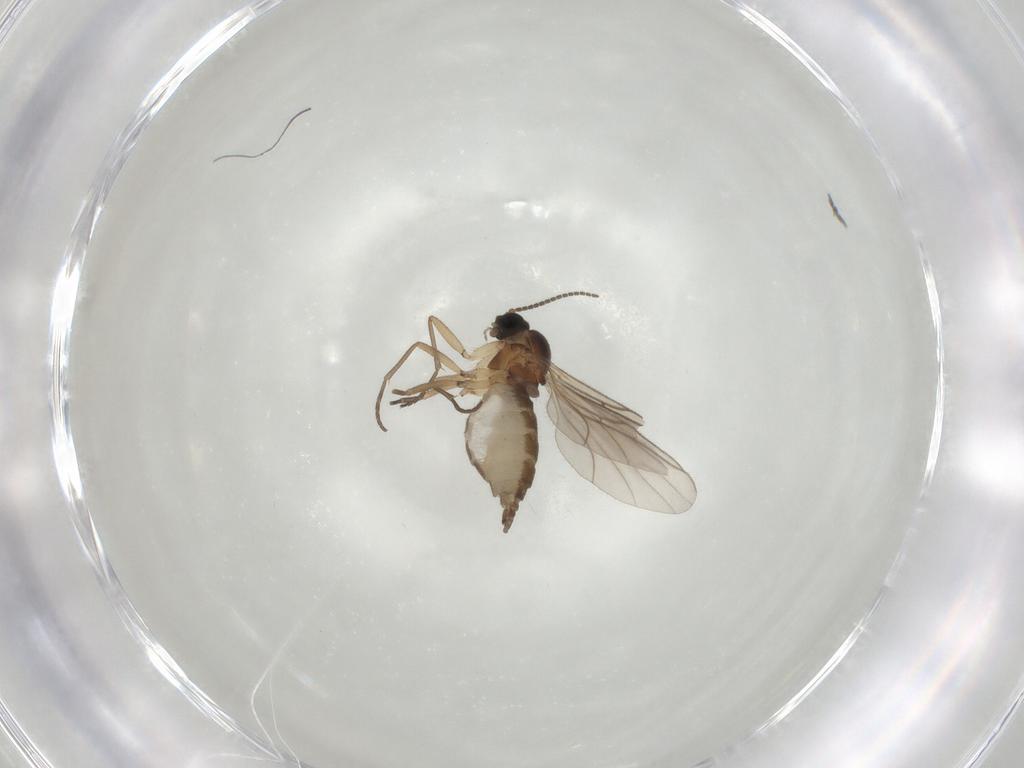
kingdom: Animalia
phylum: Arthropoda
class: Insecta
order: Diptera
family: Sciaridae
